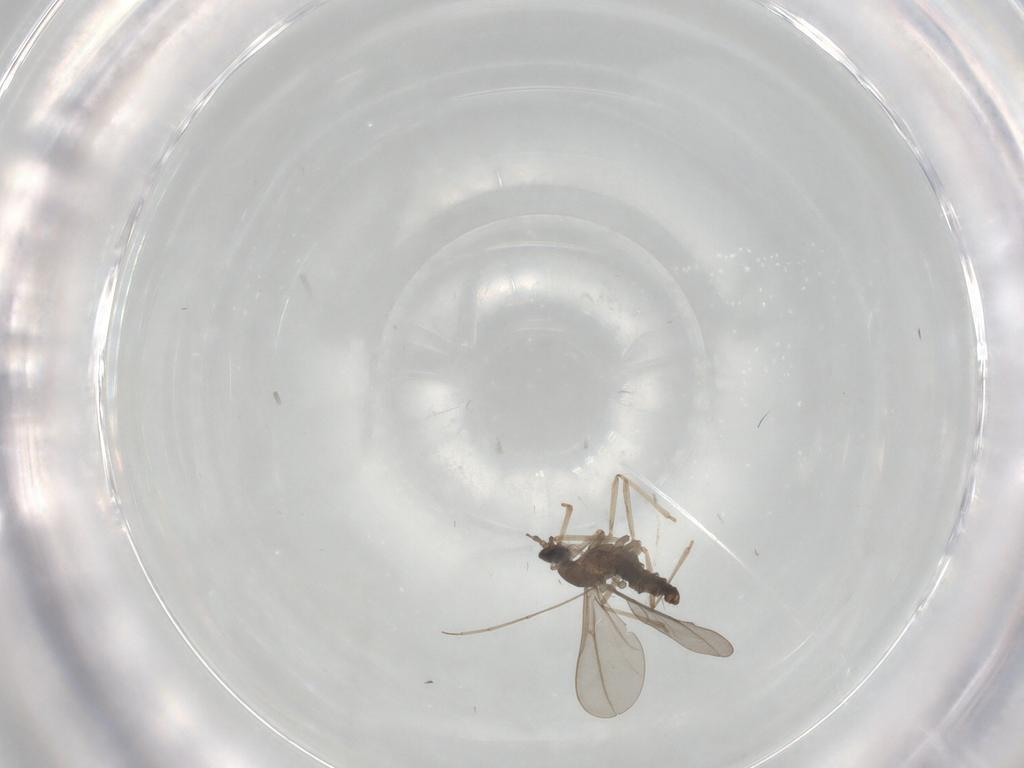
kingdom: Animalia
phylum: Arthropoda
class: Insecta
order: Diptera
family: Cecidomyiidae
